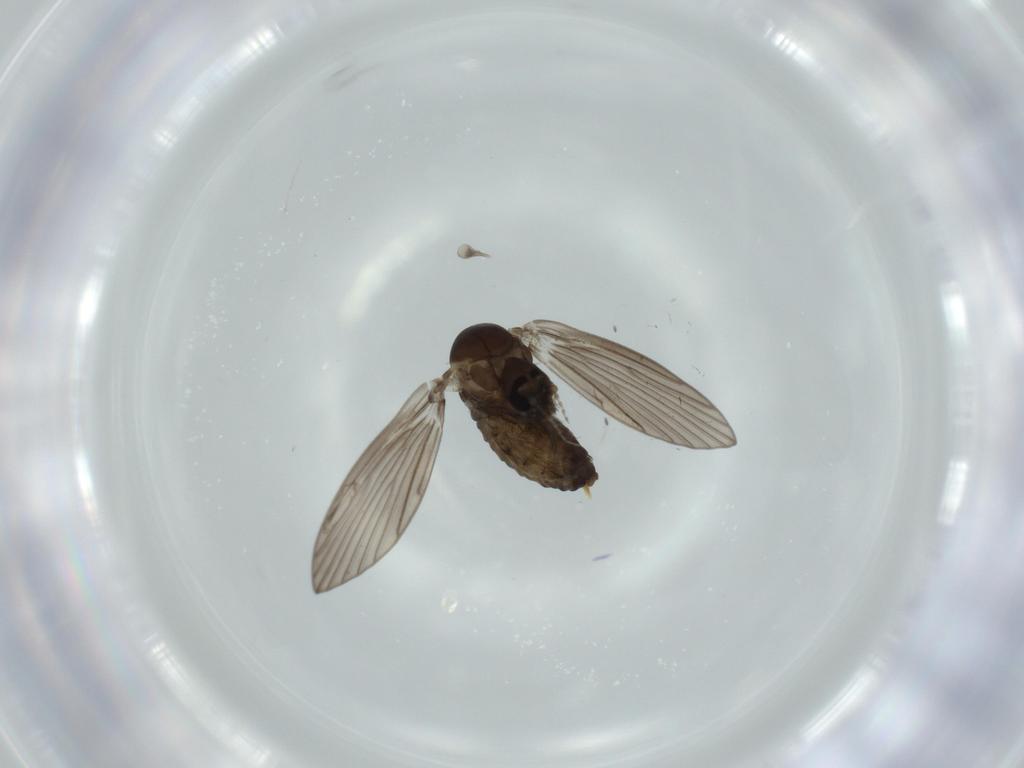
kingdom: Animalia
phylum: Arthropoda
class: Insecta
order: Diptera
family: Psychodidae
